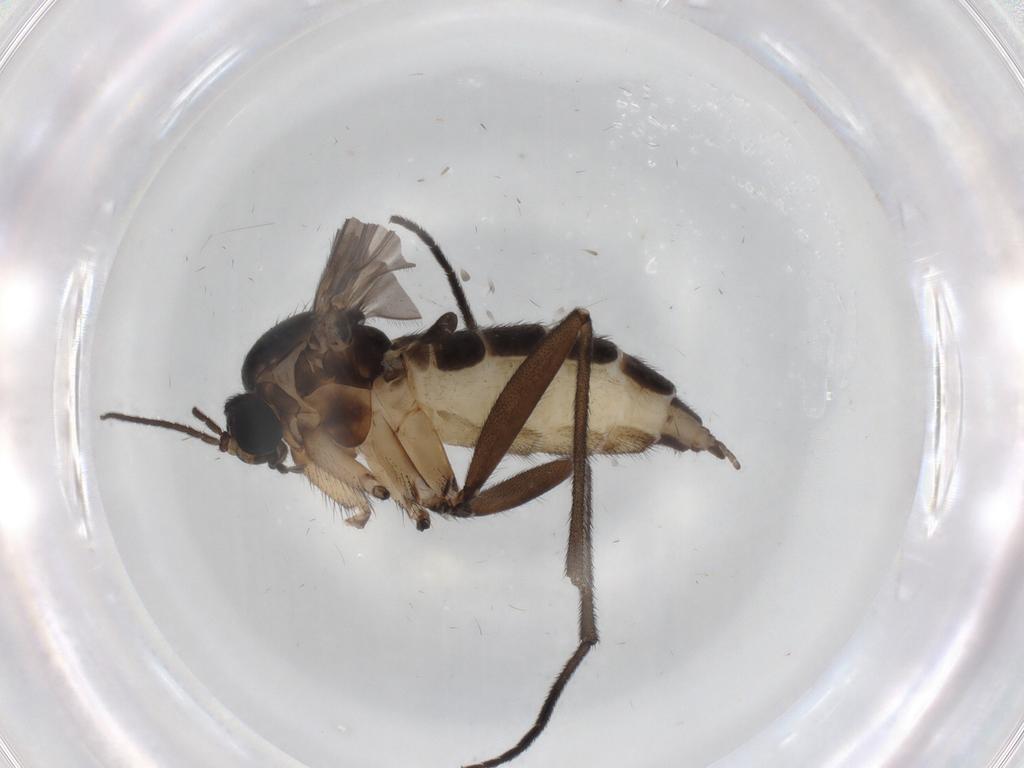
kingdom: Animalia
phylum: Arthropoda
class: Insecta
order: Diptera
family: Sciaridae
